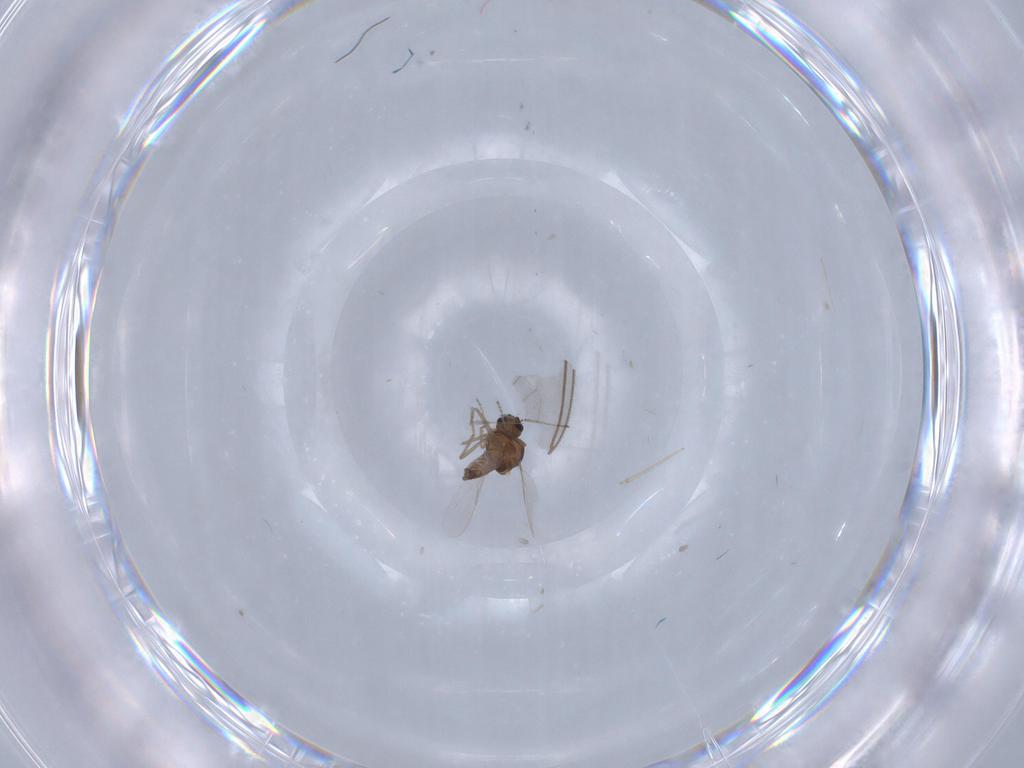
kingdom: Animalia
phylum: Arthropoda
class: Insecta
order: Diptera
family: Ceratopogonidae
